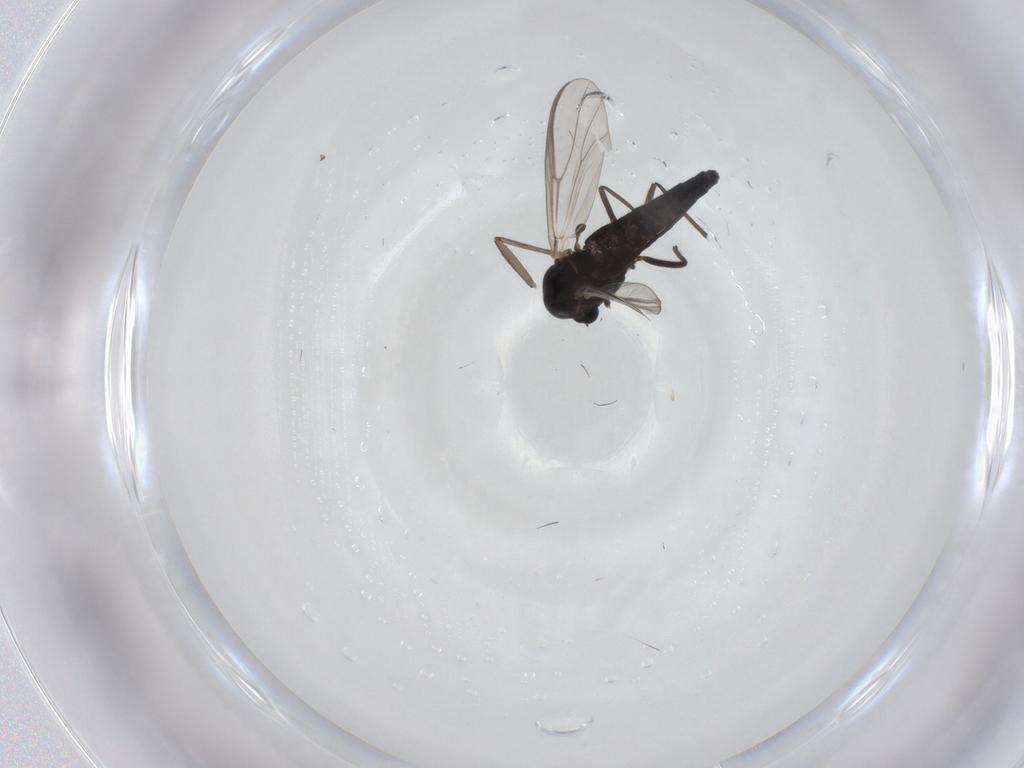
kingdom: Animalia
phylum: Arthropoda
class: Insecta
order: Diptera
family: Chironomidae
